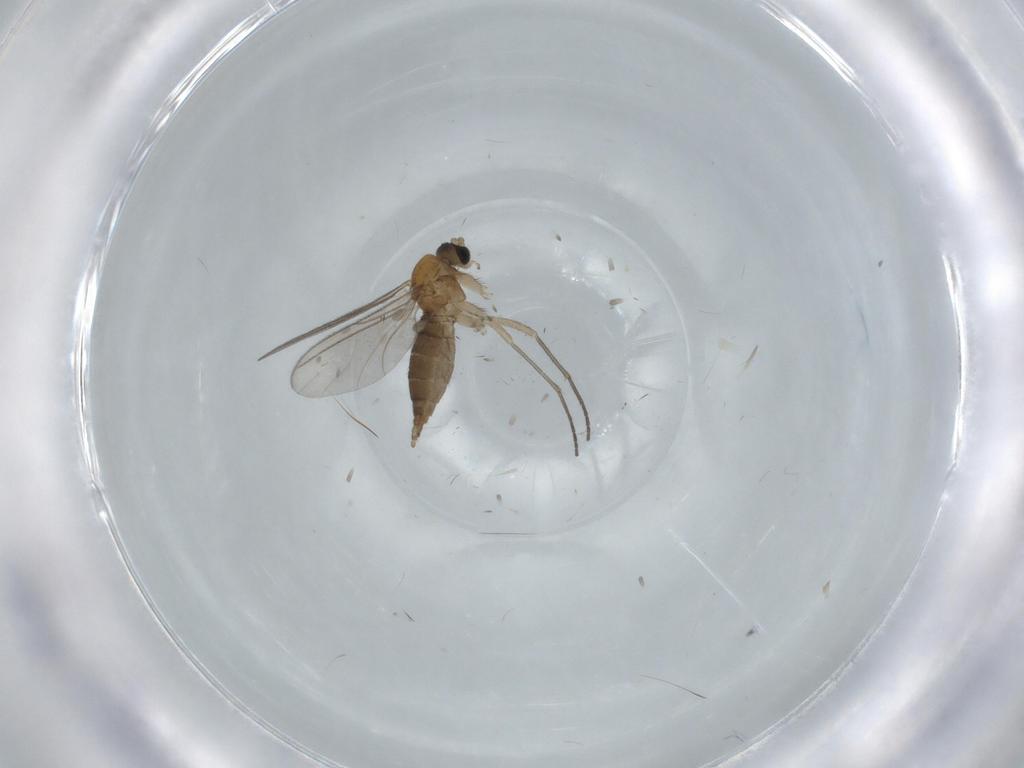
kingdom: Animalia
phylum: Arthropoda
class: Insecta
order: Diptera
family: Sciaridae
